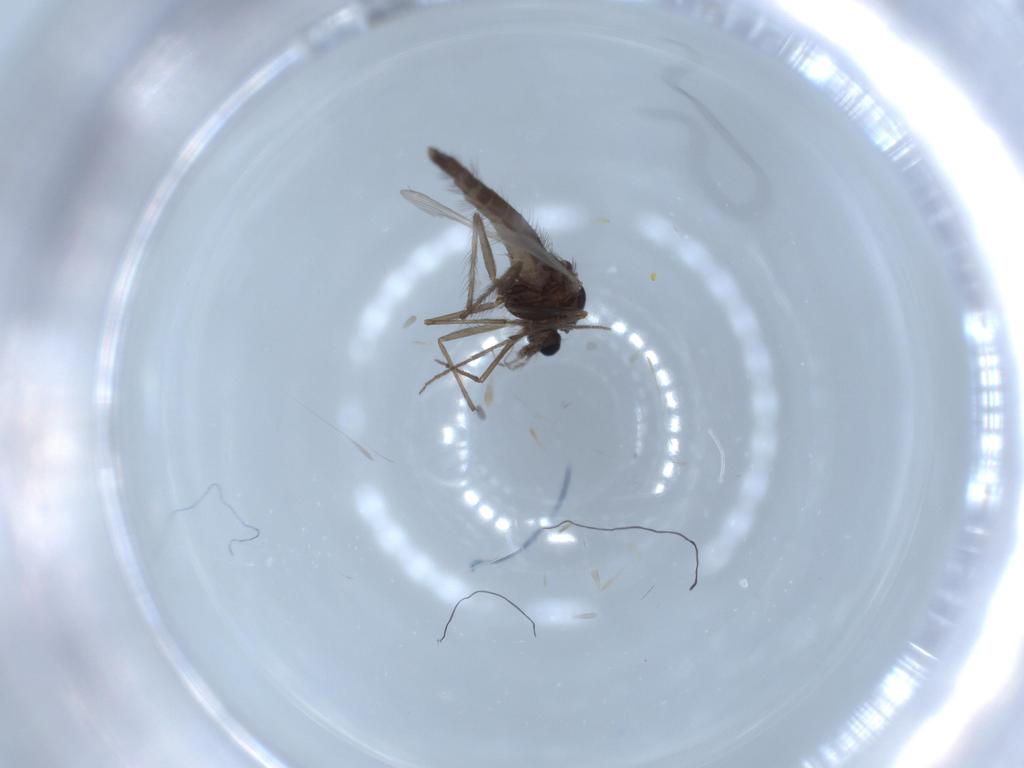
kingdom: Animalia
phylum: Arthropoda
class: Insecta
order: Diptera
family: Chironomidae
